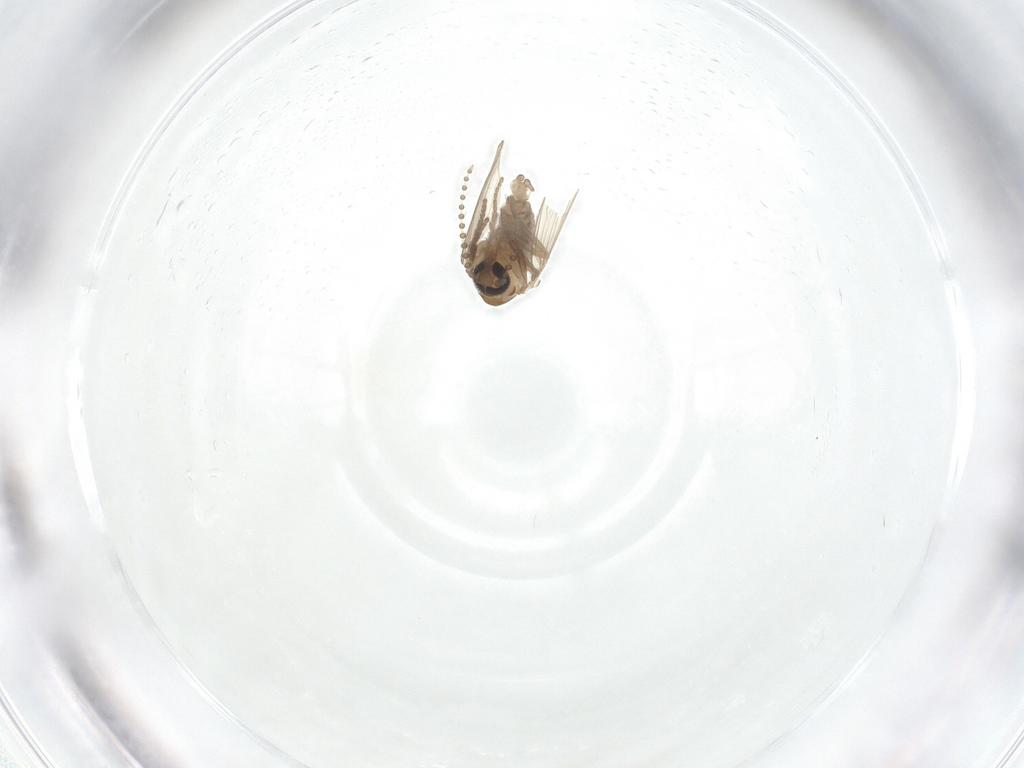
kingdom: Animalia
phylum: Arthropoda
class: Insecta
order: Diptera
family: Psychodidae
